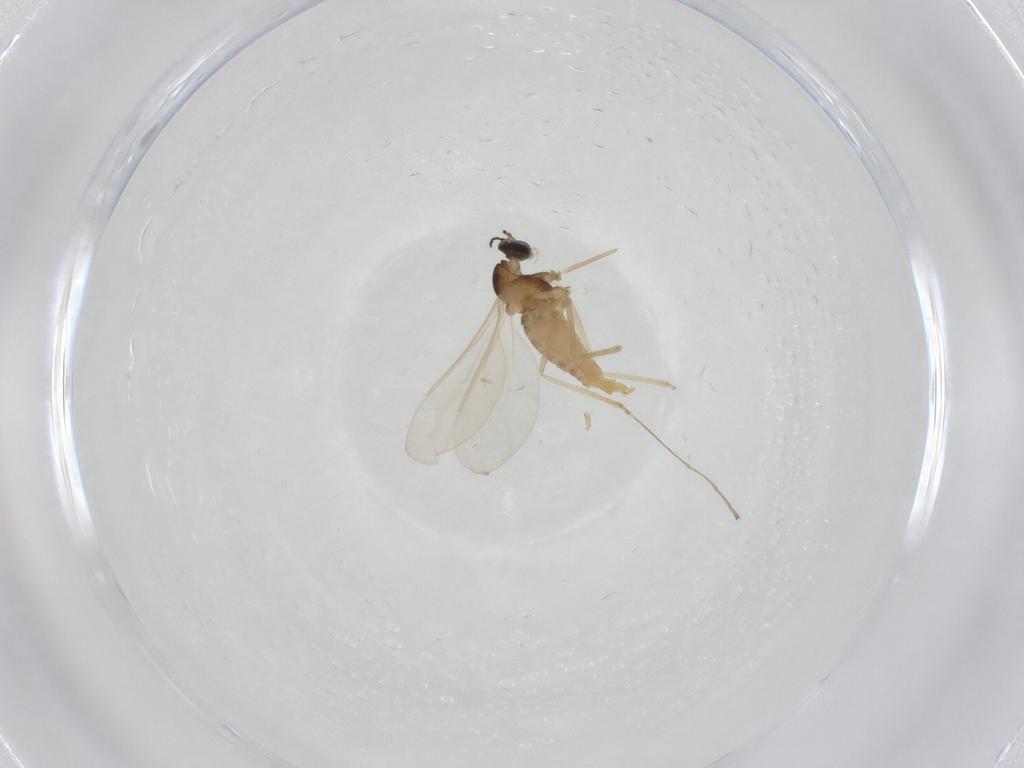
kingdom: Animalia
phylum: Arthropoda
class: Insecta
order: Diptera
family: Cecidomyiidae
